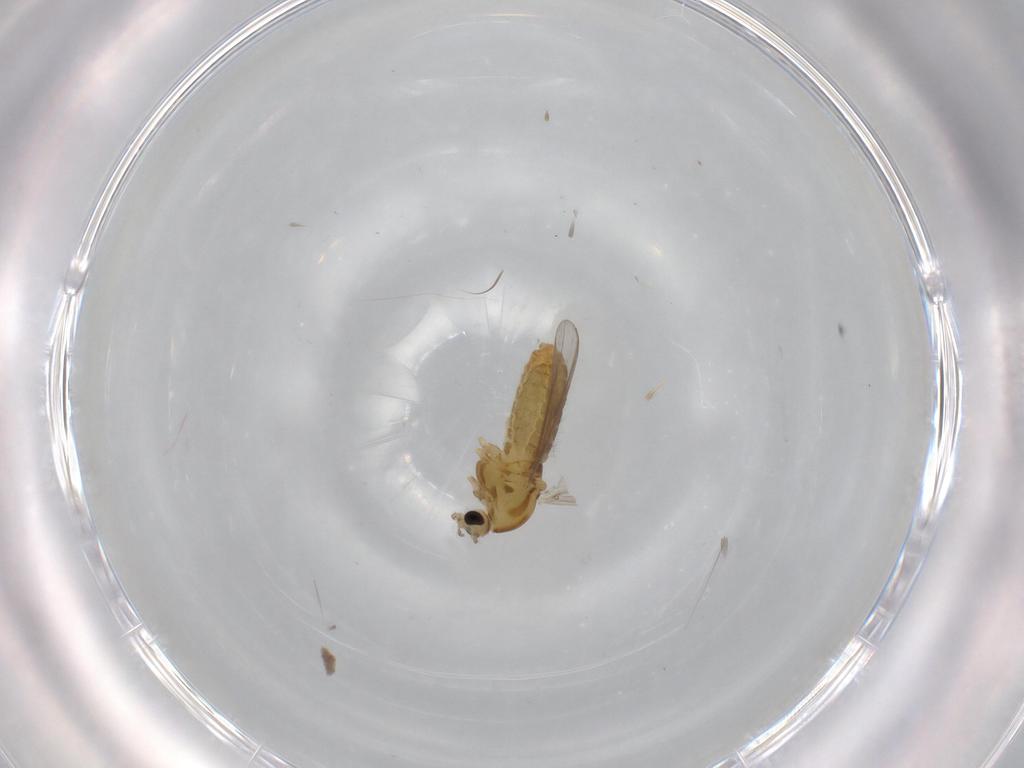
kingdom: Animalia
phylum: Arthropoda
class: Insecta
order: Diptera
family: Chironomidae
